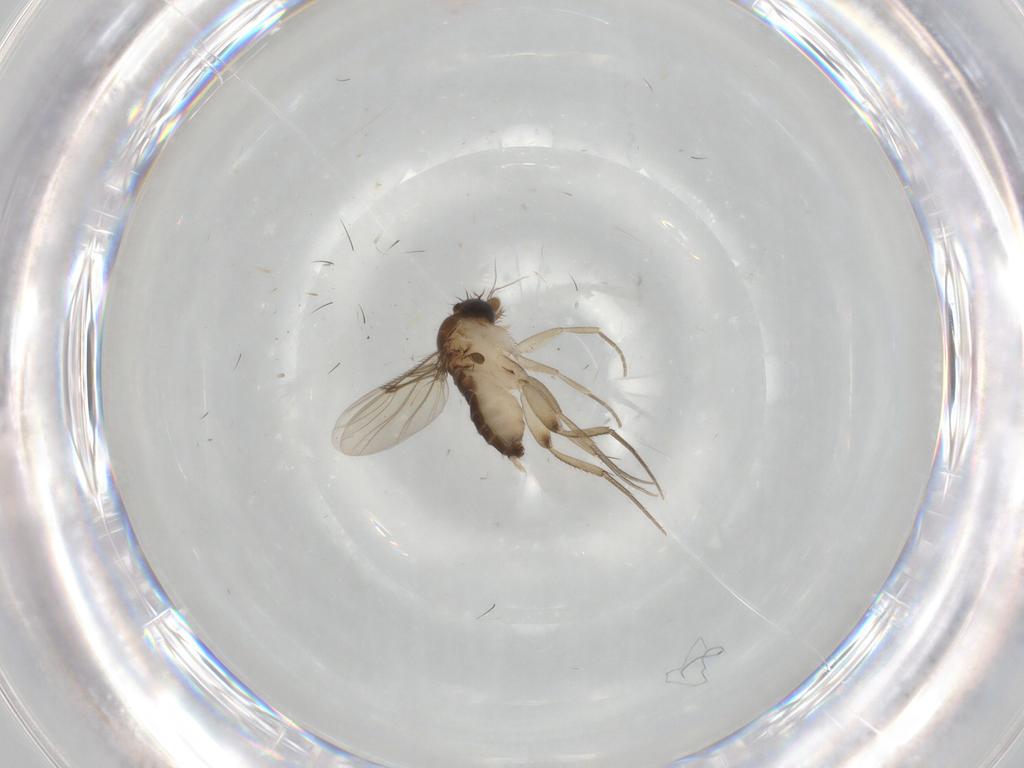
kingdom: Animalia
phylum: Arthropoda
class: Insecta
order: Diptera
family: Phoridae
